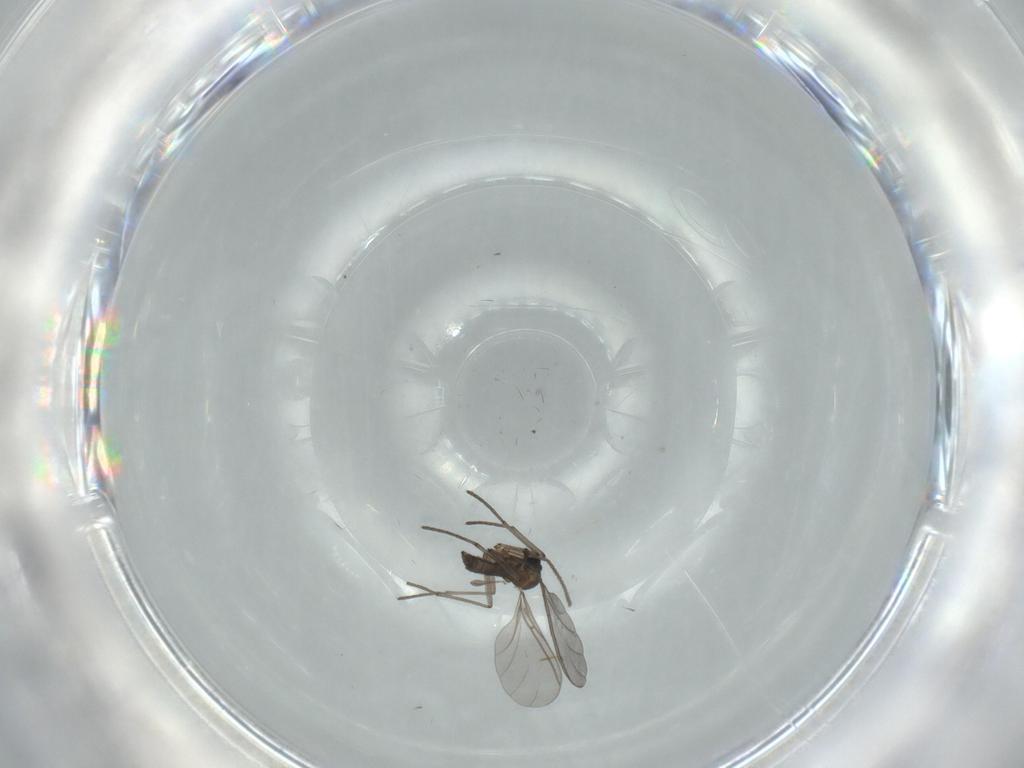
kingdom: Animalia
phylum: Arthropoda
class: Insecta
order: Diptera
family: Sciaridae
